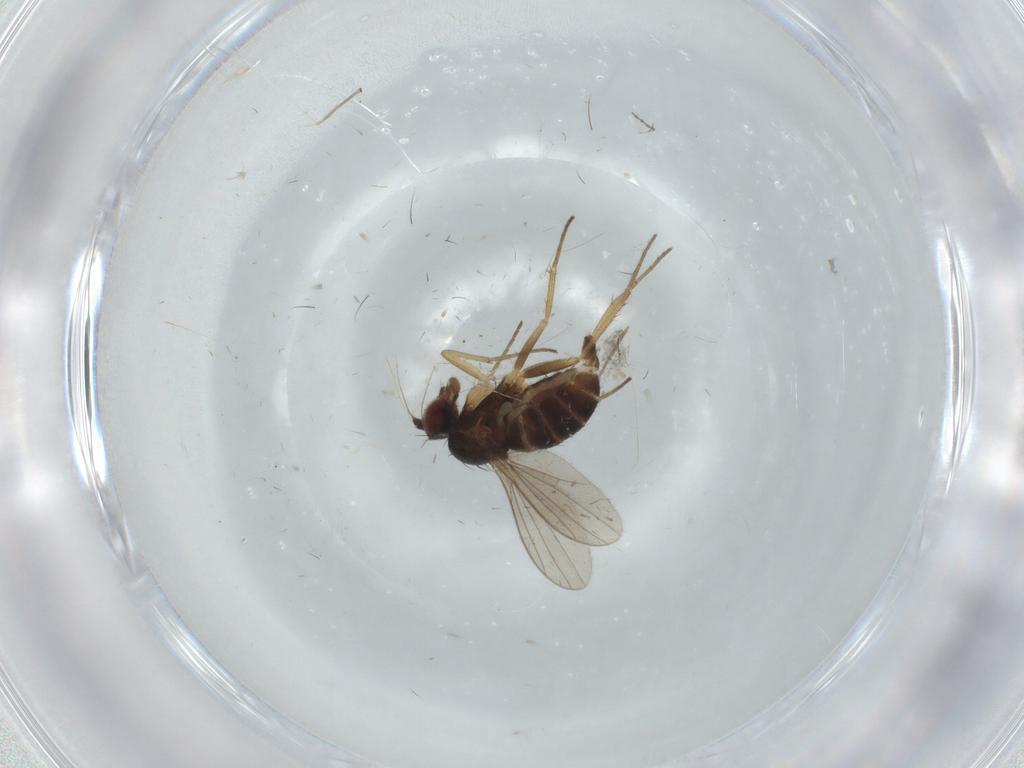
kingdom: Animalia
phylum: Arthropoda
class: Insecta
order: Diptera
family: Dolichopodidae
